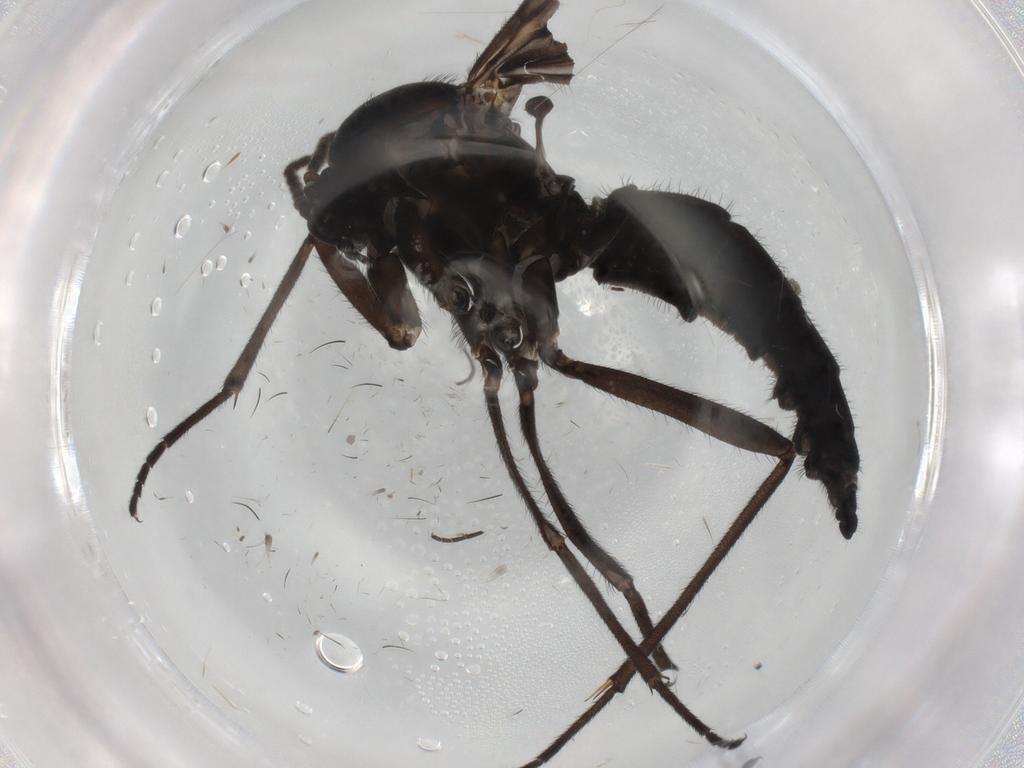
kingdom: Animalia
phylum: Arthropoda
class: Insecta
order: Diptera
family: Sciaridae
